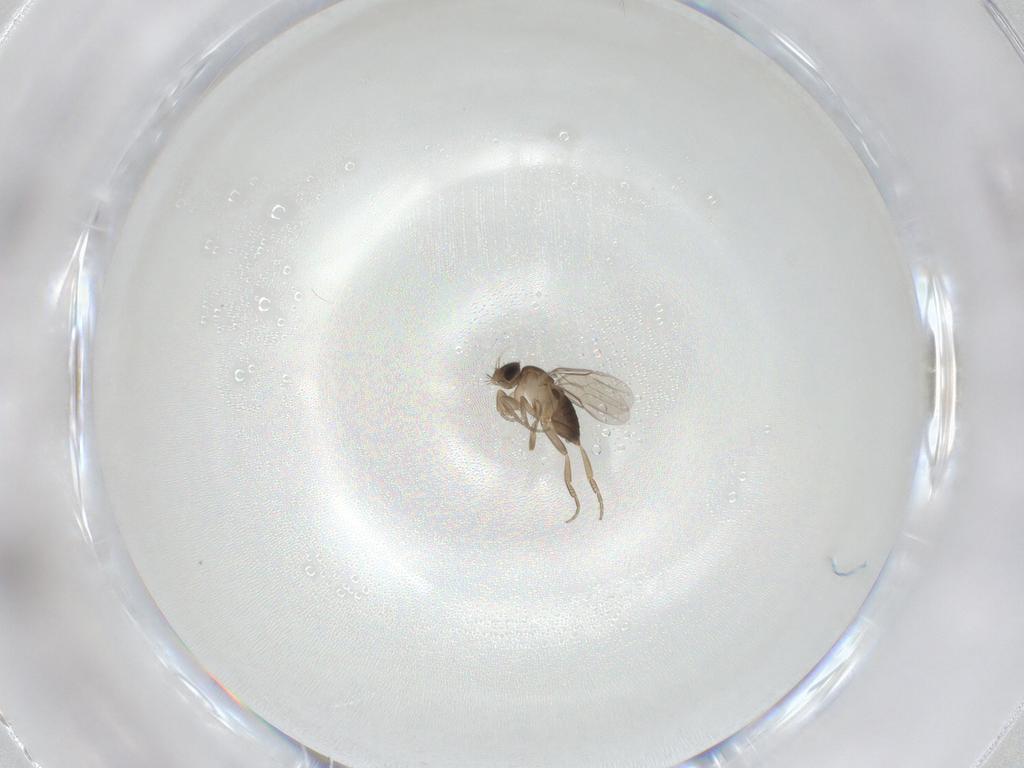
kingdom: Animalia
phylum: Arthropoda
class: Insecta
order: Diptera
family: Phoridae
